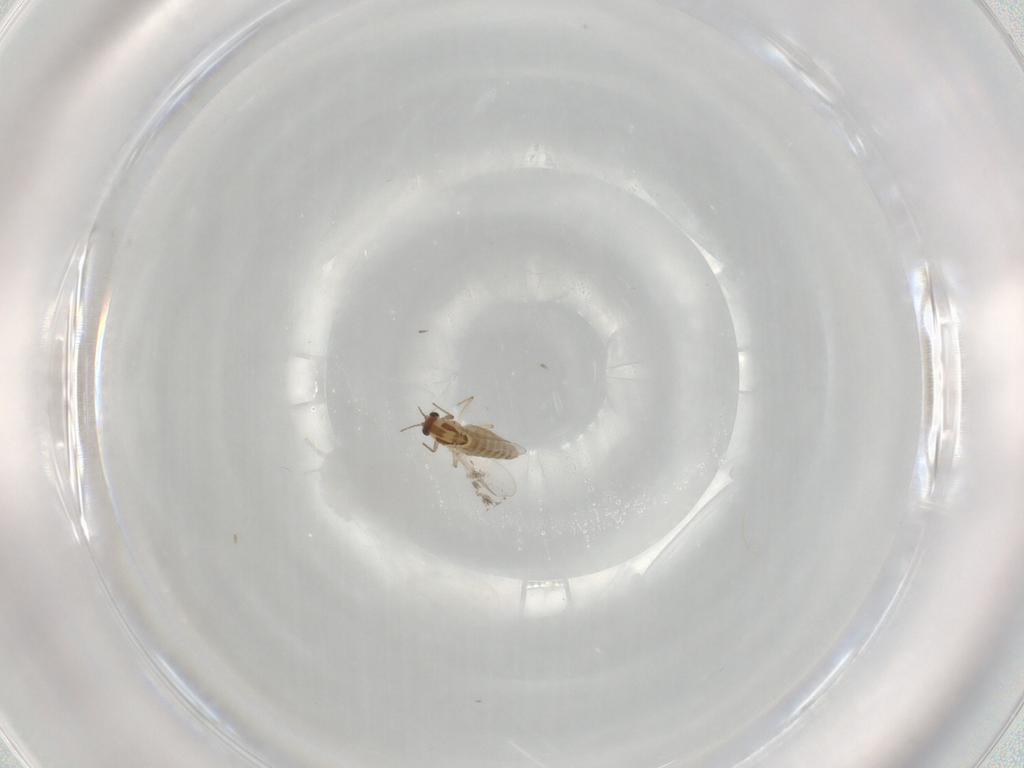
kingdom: Animalia
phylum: Arthropoda
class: Insecta
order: Diptera
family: Chironomidae
